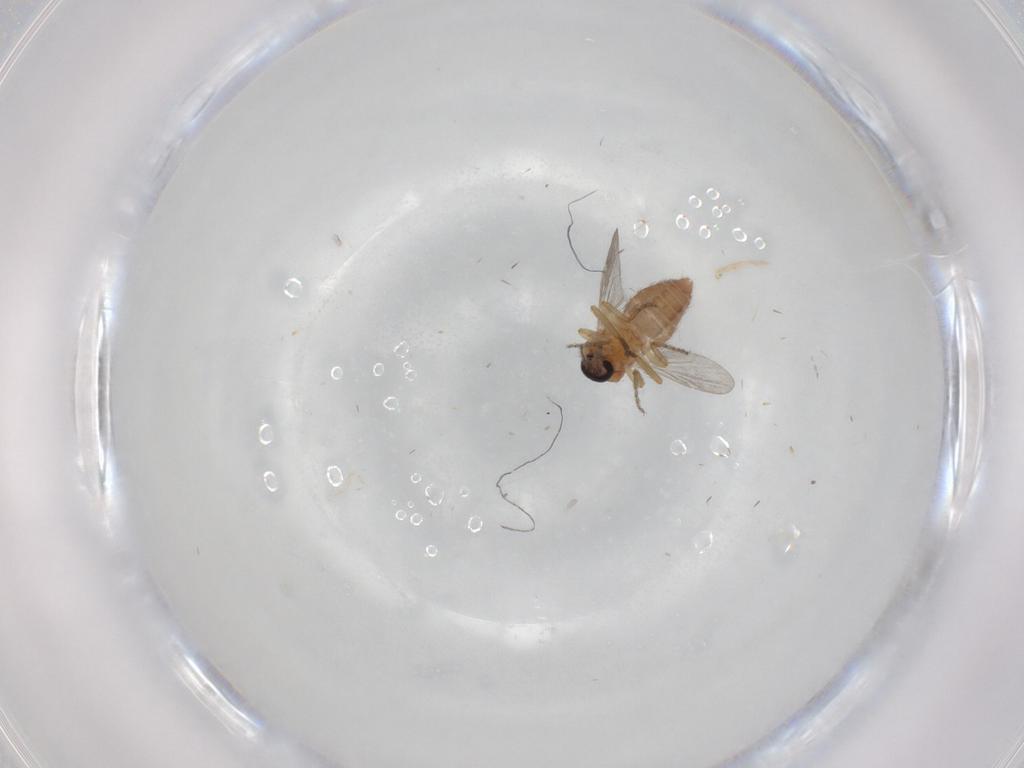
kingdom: Animalia
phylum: Arthropoda
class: Insecta
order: Diptera
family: Ceratopogonidae
